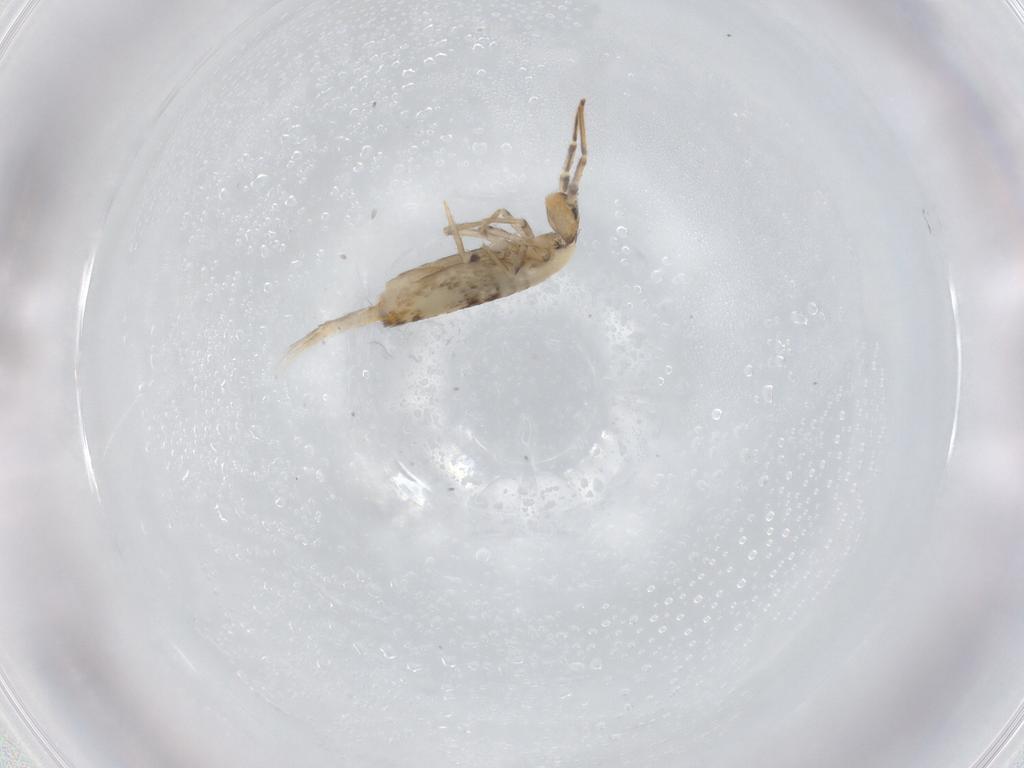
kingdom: Animalia
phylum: Arthropoda
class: Collembola
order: Entomobryomorpha
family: Entomobryidae
